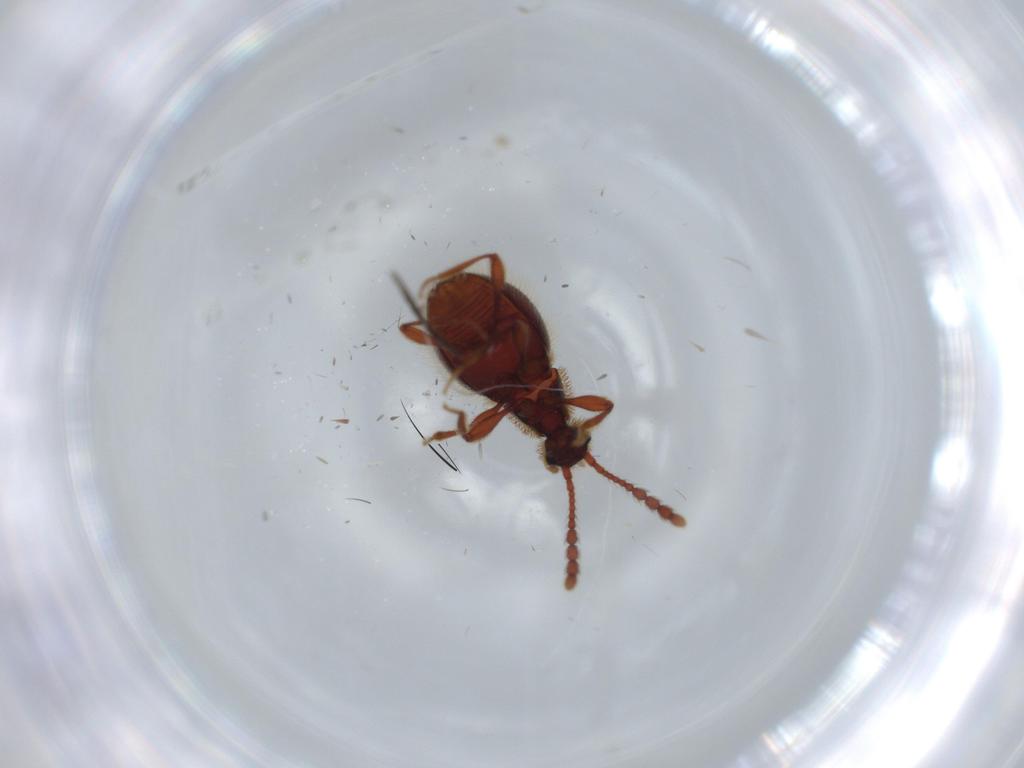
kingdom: Animalia
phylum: Arthropoda
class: Insecta
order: Coleoptera
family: Staphylinidae
